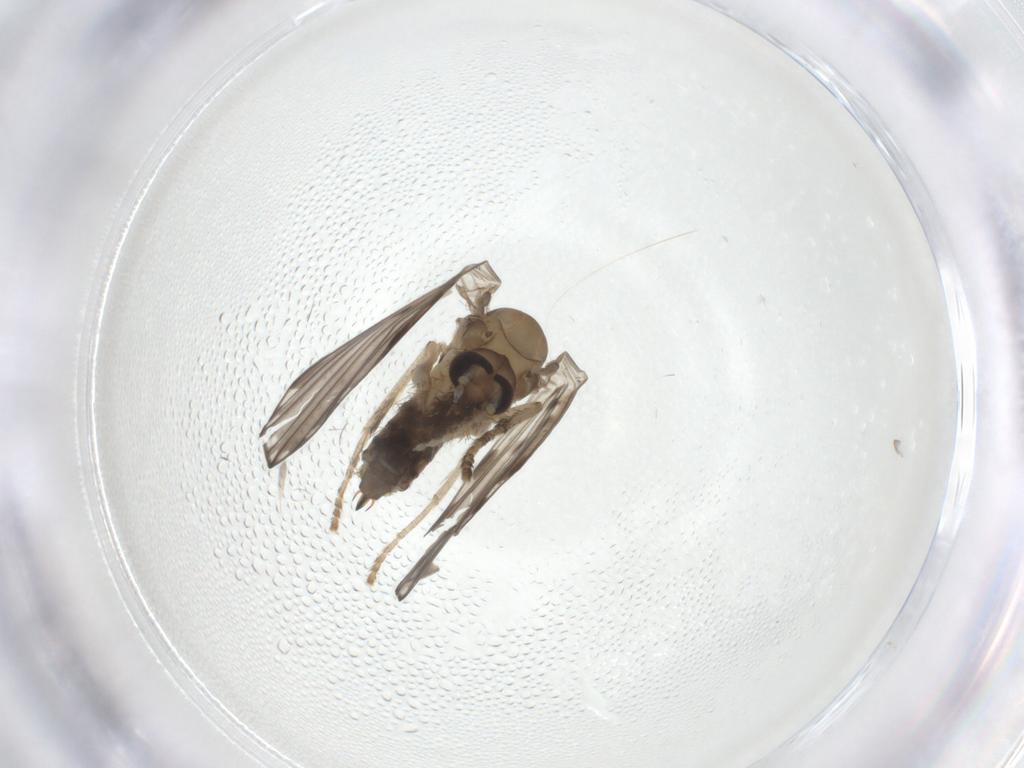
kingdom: Animalia
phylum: Arthropoda
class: Insecta
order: Diptera
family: Psychodidae
